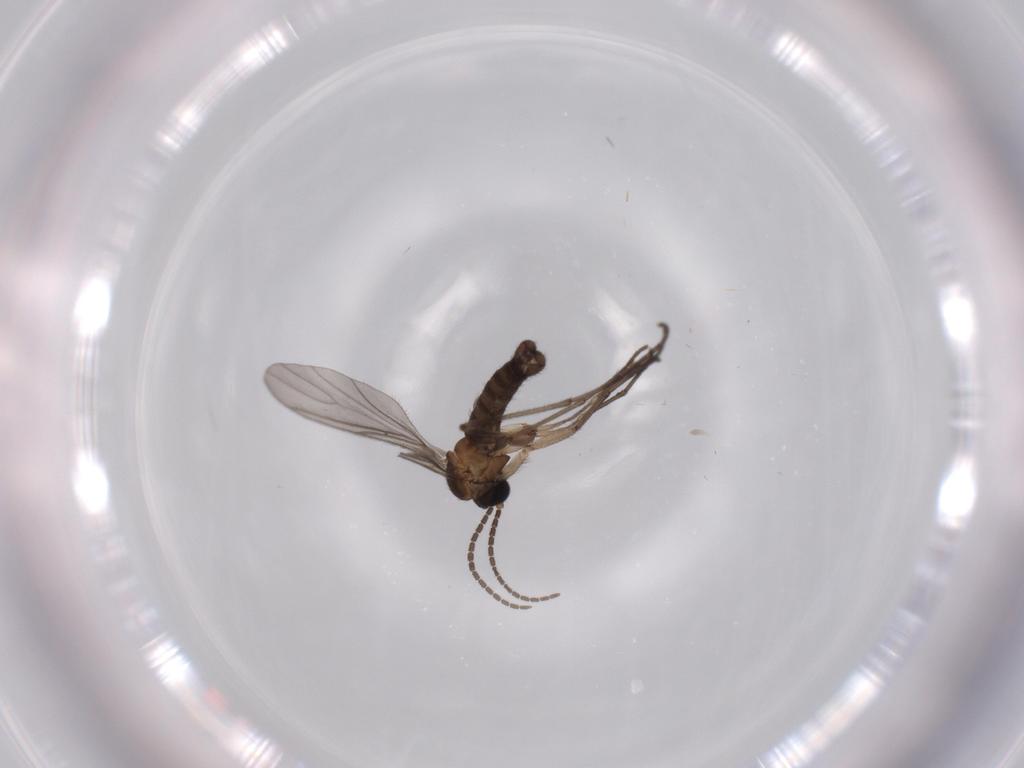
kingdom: Animalia
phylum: Arthropoda
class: Insecta
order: Diptera
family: Sciaridae
